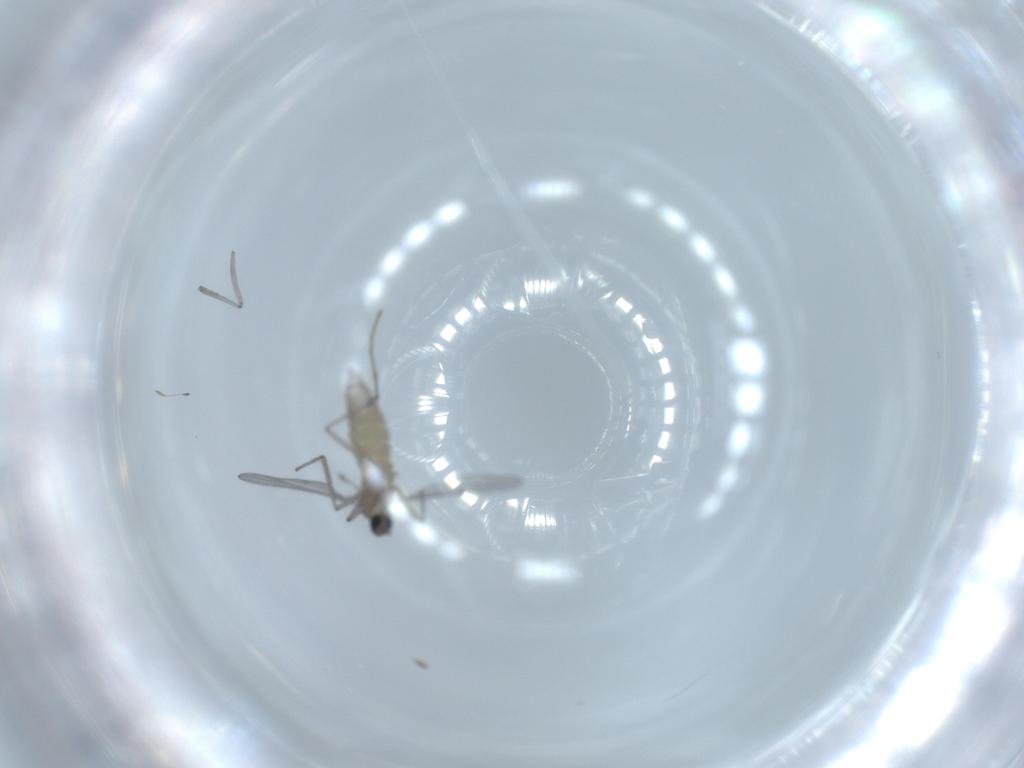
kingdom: Animalia
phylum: Arthropoda
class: Insecta
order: Diptera
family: Cecidomyiidae
